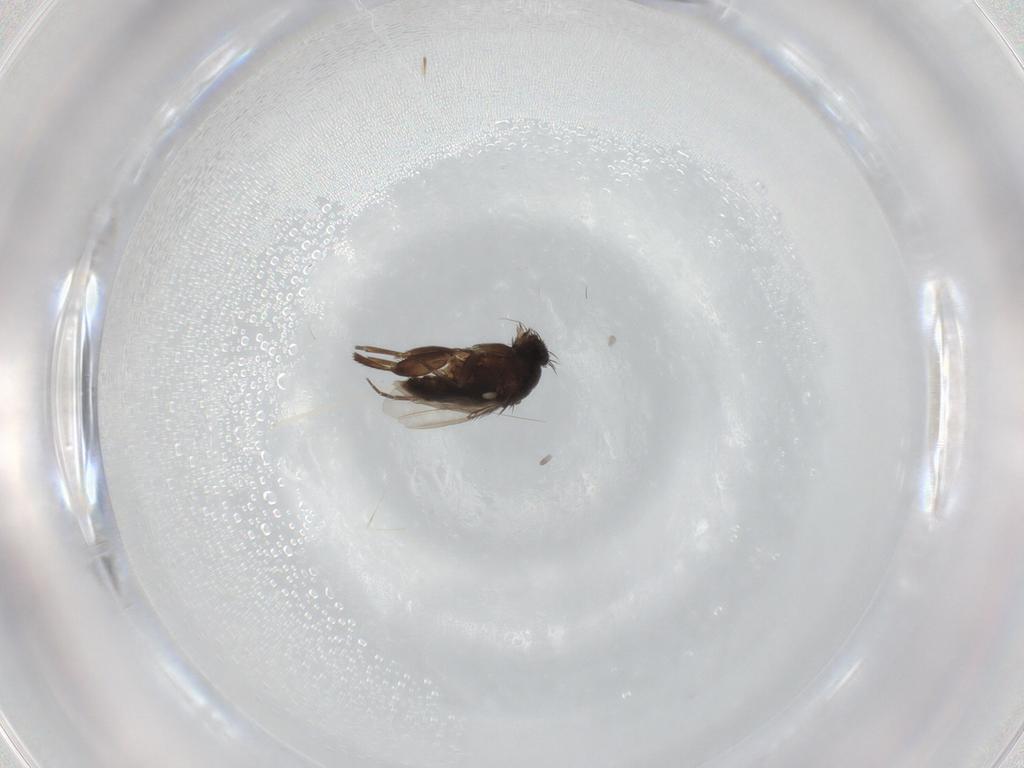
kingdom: Animalia
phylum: Arthropoda
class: Insecta
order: Diptera
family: Phoridae
